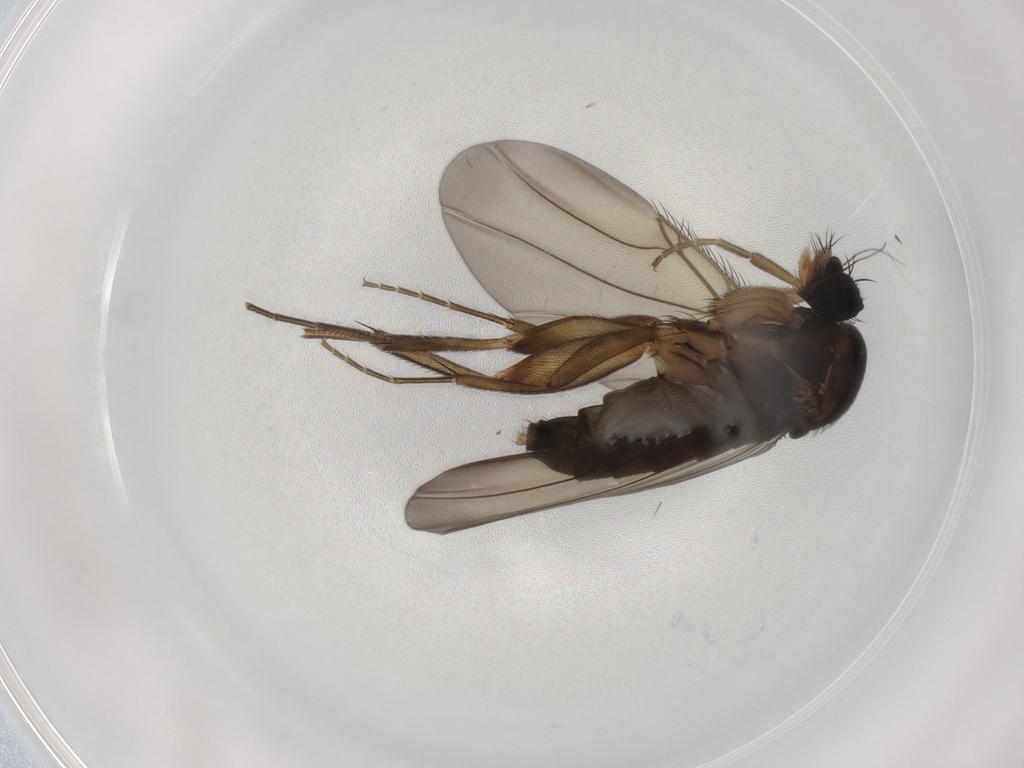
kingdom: Animalia
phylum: Arthropoda
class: Insecta
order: Diptera
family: Phoridae
